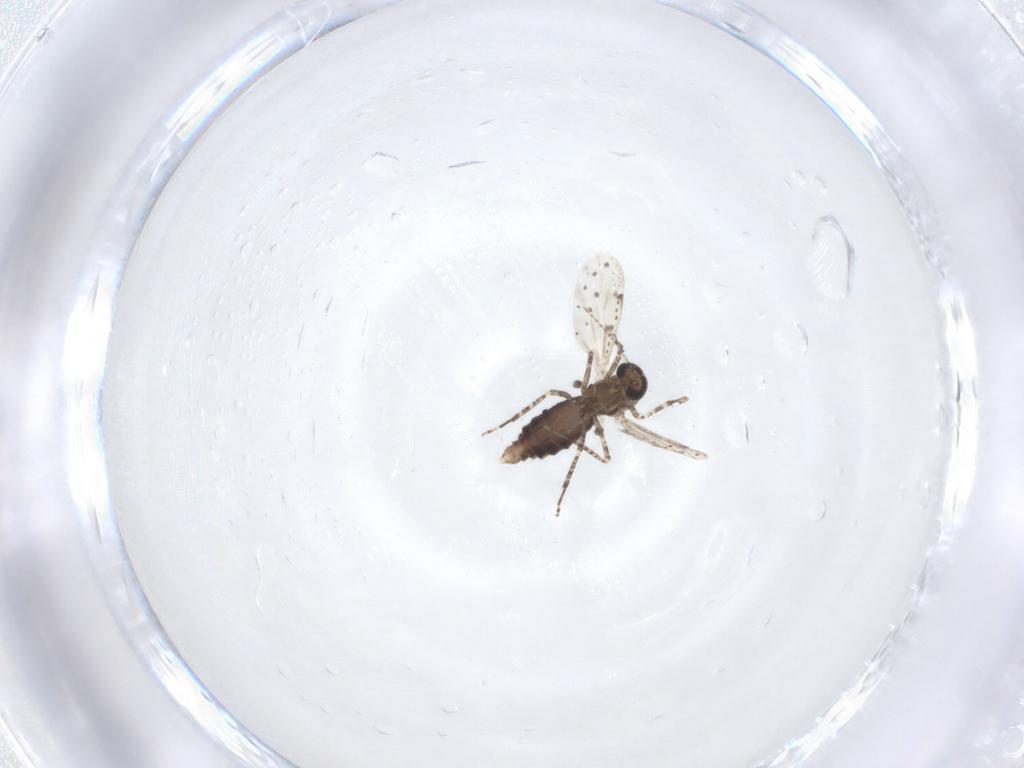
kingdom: Animalia
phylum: Arthropoda
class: Insecta
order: Diptera
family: Ceratopogonidae
